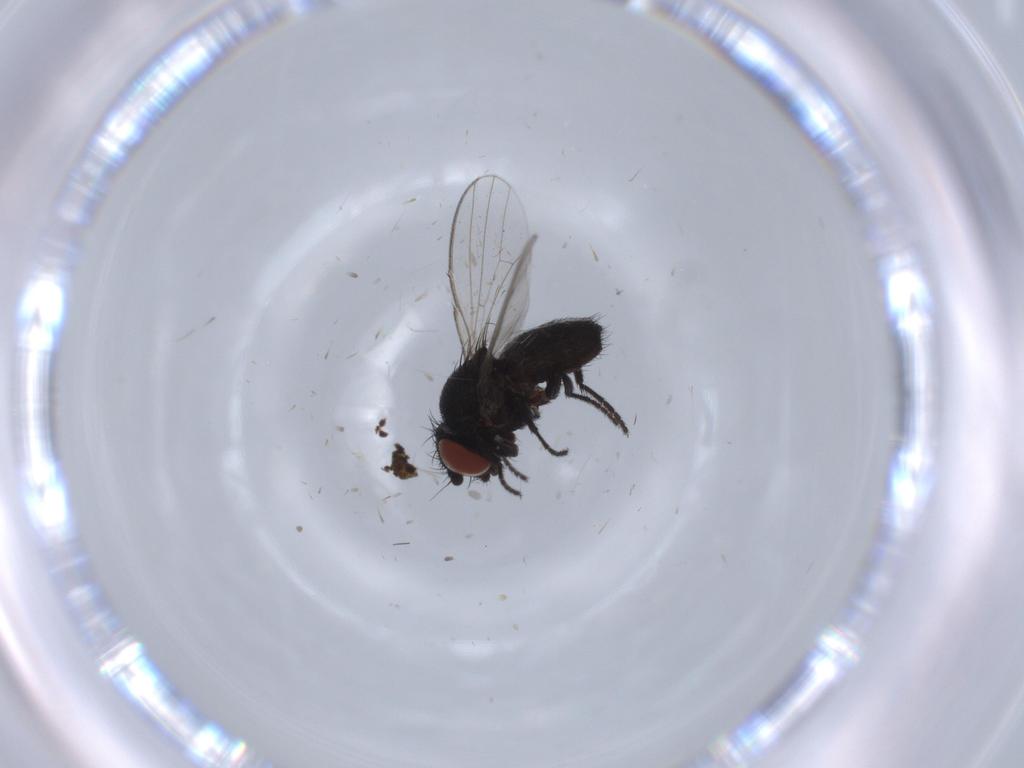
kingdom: Animalia
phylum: Arthropoda
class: Insecta
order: Diptera
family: Milichiidae
